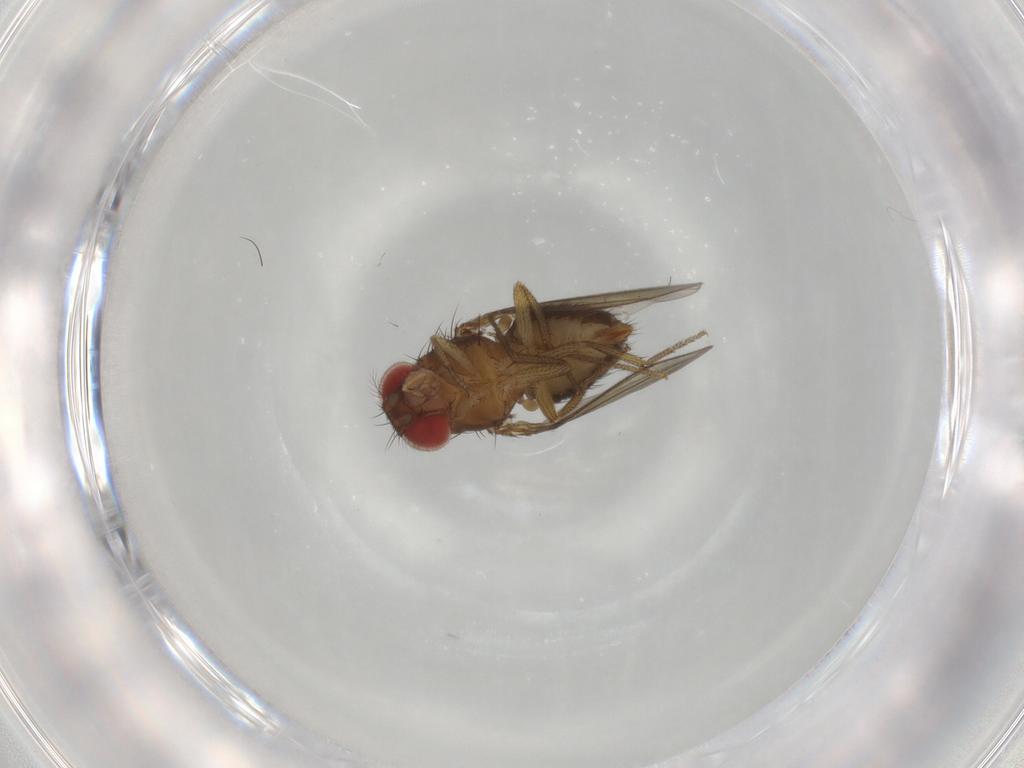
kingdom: Animalia
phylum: Arthropoda
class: Insecta
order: Diptera
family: Drosophilidae
